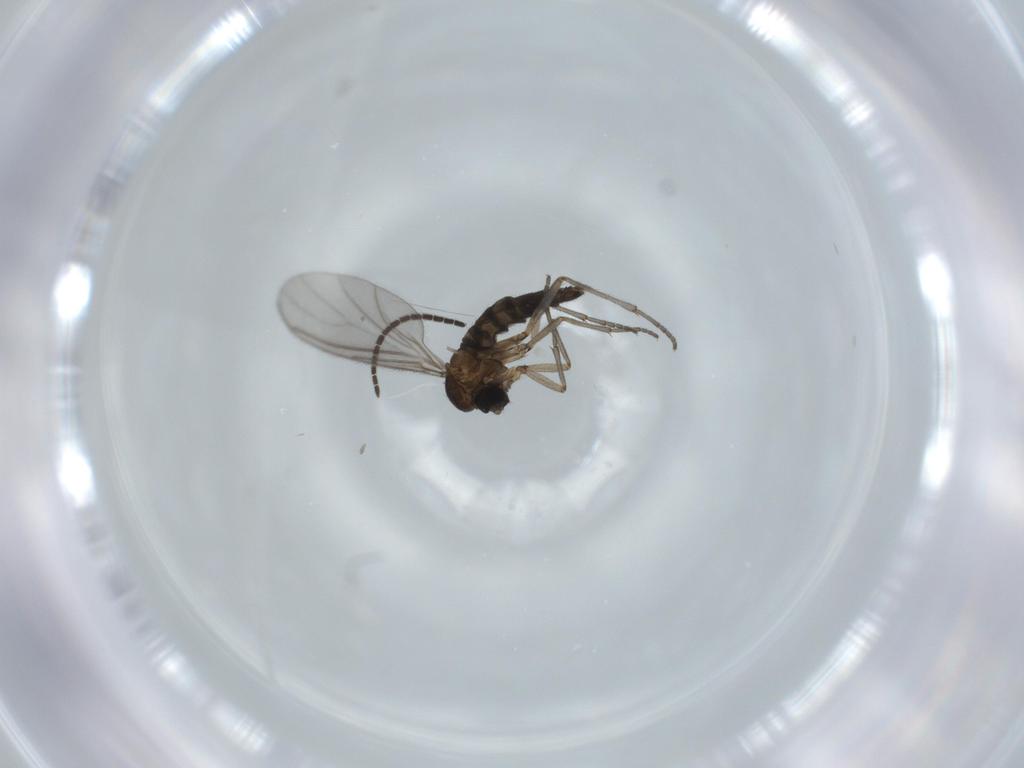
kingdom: Animalia
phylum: Arthropoda
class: Insecta
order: Diptera
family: Sciaridae
